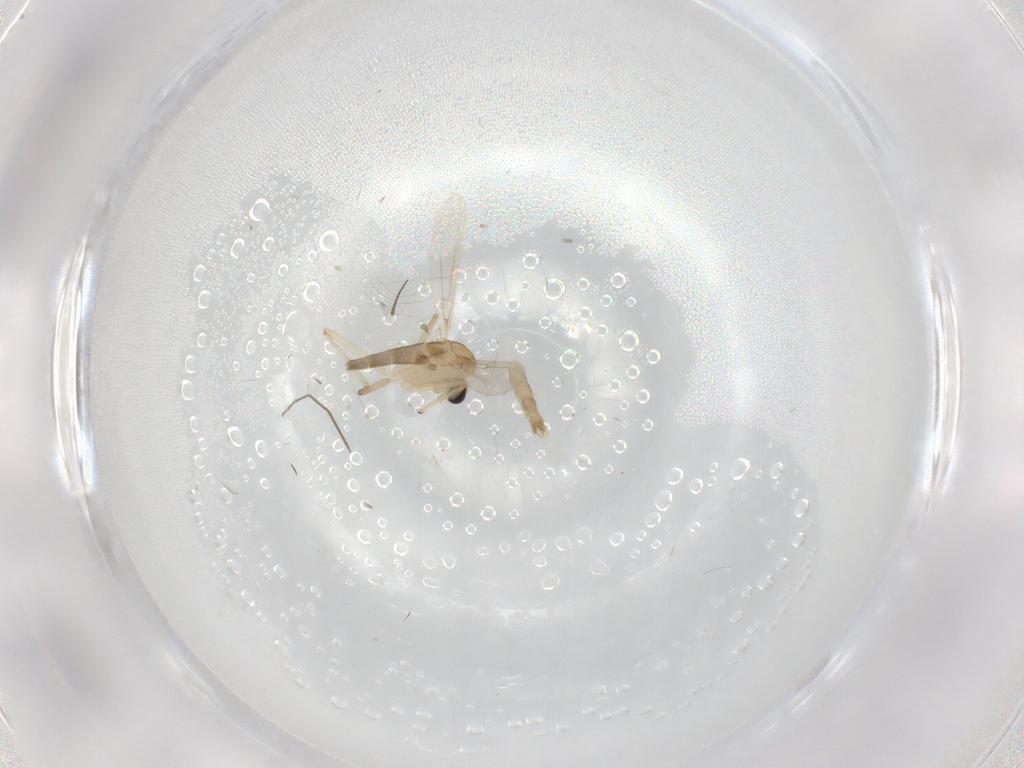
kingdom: Animalia
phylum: Arthropoda
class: Insecta
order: Diptera
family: Chironomidae
